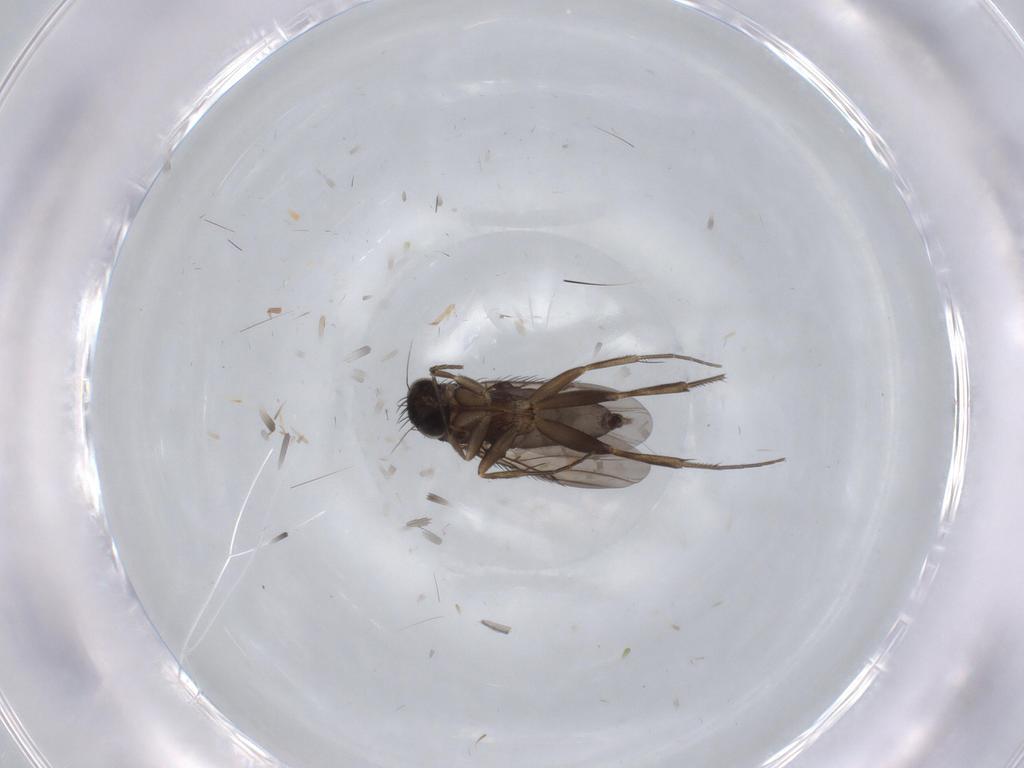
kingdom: Animalia
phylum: Arthropoda
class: Insecta
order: Diptera
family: Phoridae
